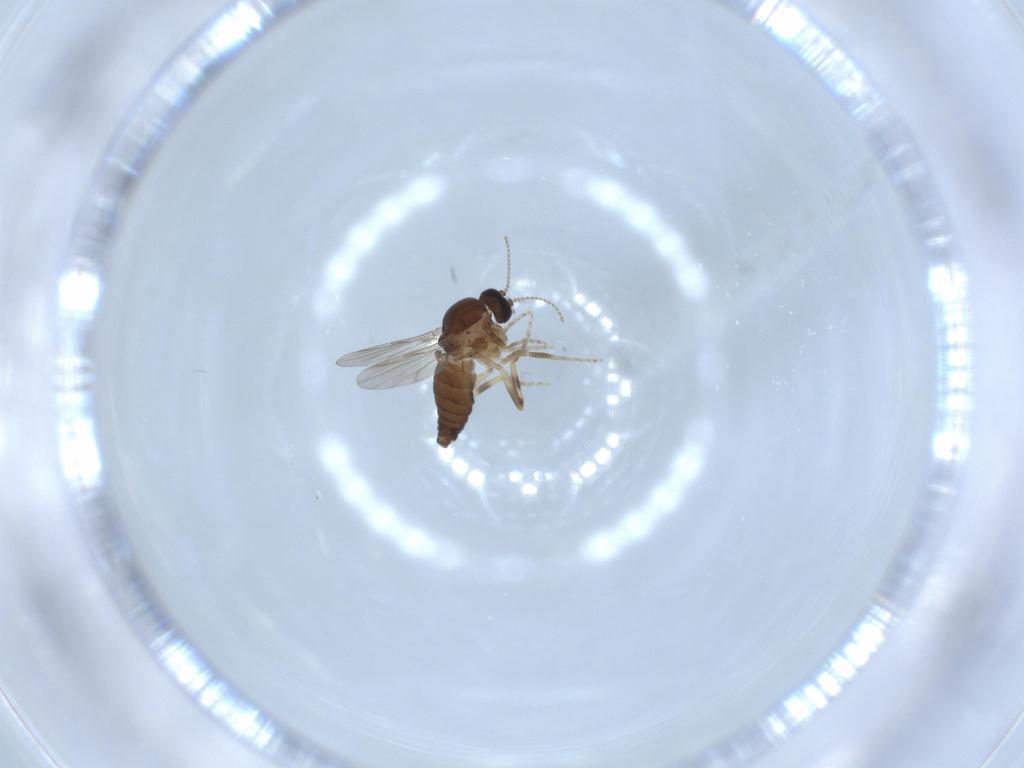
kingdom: Animalia
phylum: Arthropoda
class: Insecta
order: Diptera
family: Ceratopogonidae
